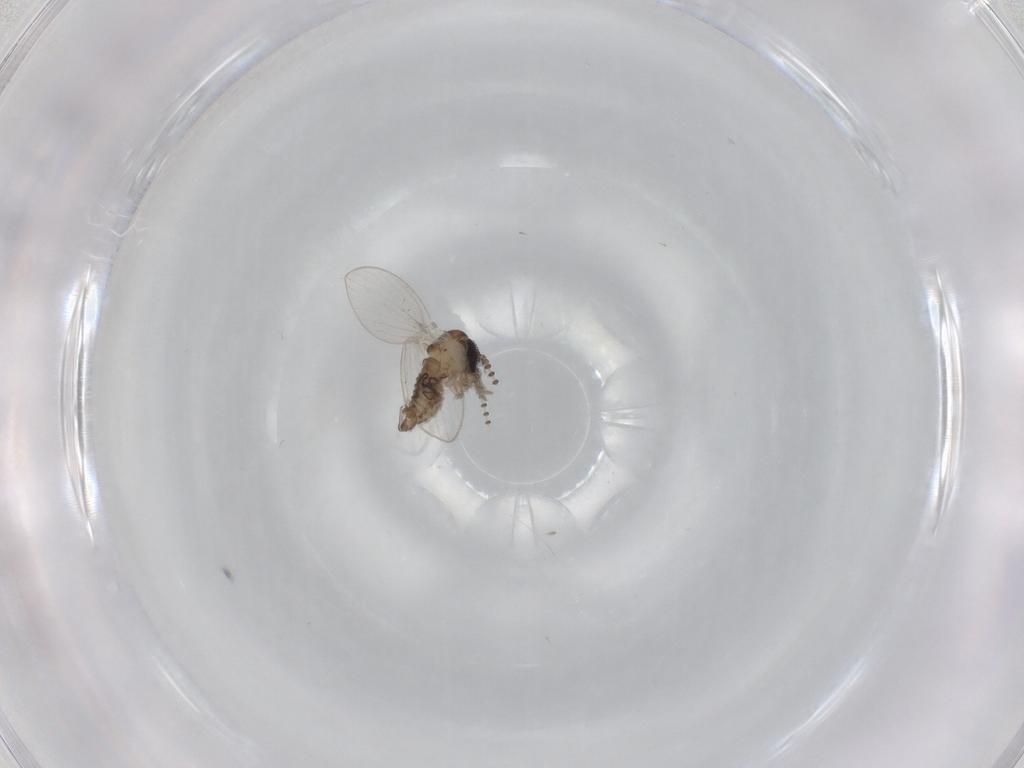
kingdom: Animalia
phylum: Arthropoda
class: Insecta
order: Diptera
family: Psychodidae
